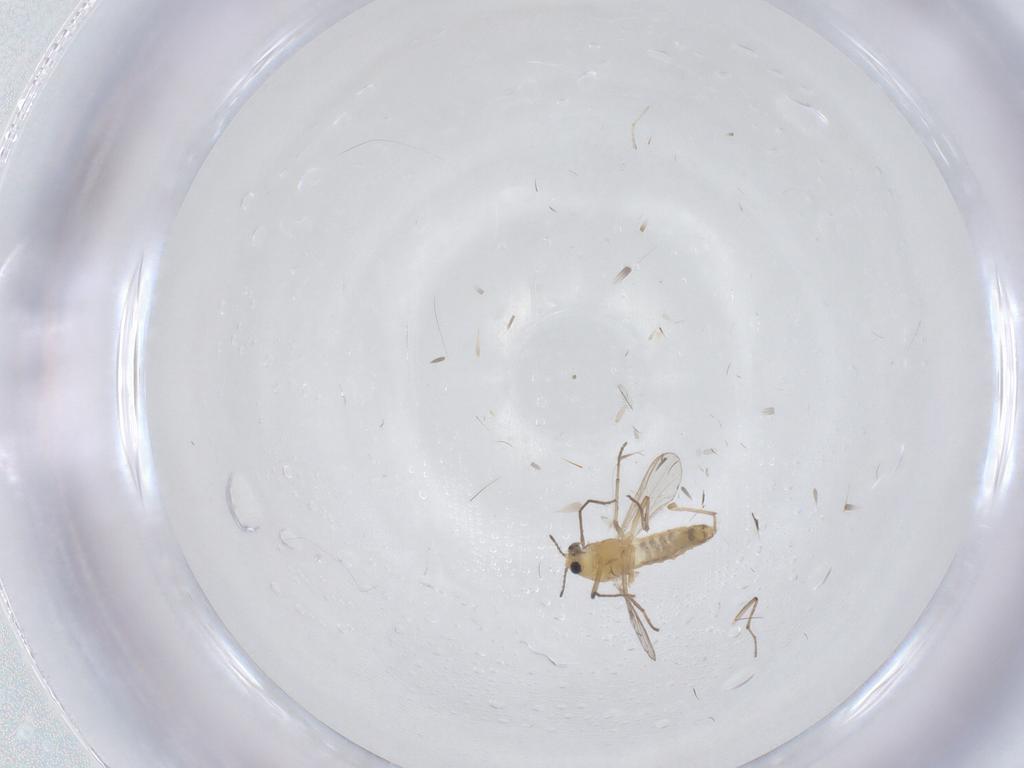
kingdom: Animalia
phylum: Arthropoda
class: Insecta
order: Diptera
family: Chironomidae
